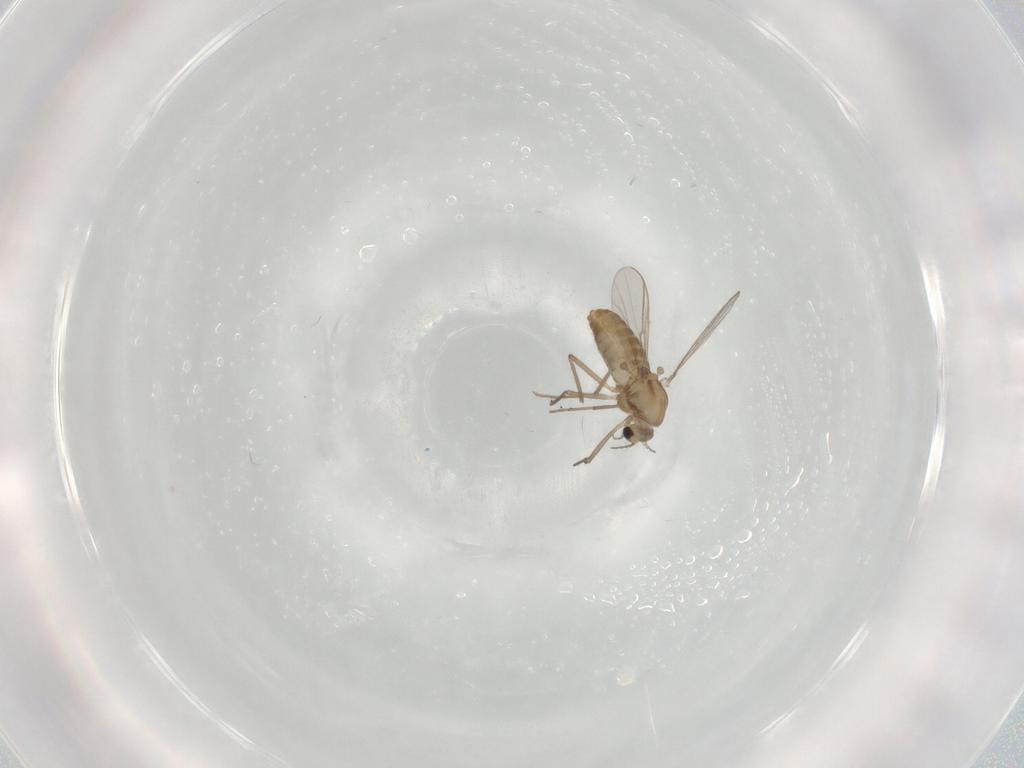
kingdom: Animalia
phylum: Arthropoda
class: Insecta
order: Diptera
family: Chironomidae
